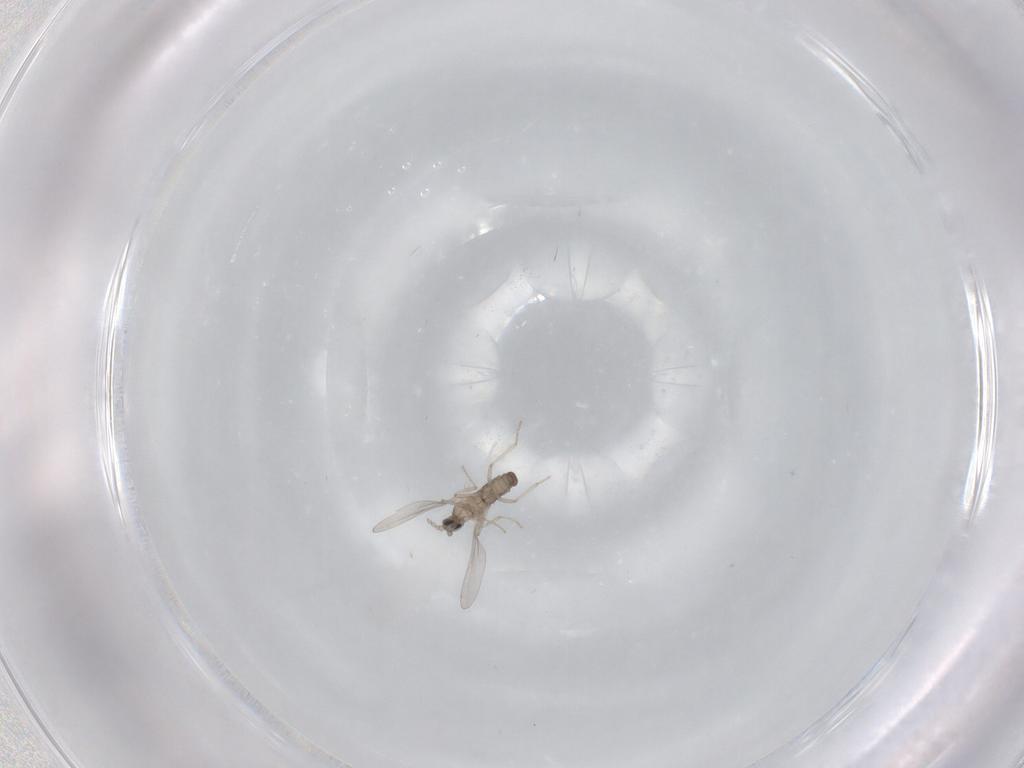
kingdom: Animalia
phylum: Arthropoda
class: Insecta
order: Diptera
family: Cecidomyiidae
